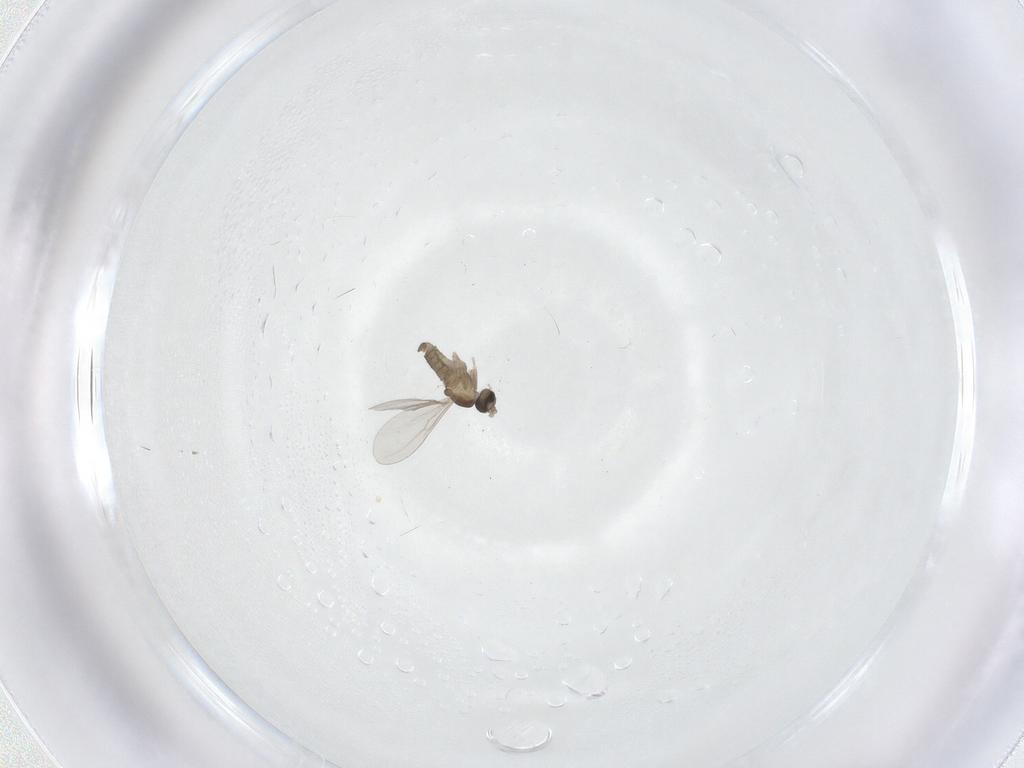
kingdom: Animalia
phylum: Arthropoda
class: Insecta
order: Diptera
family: Cecidomyiidae
